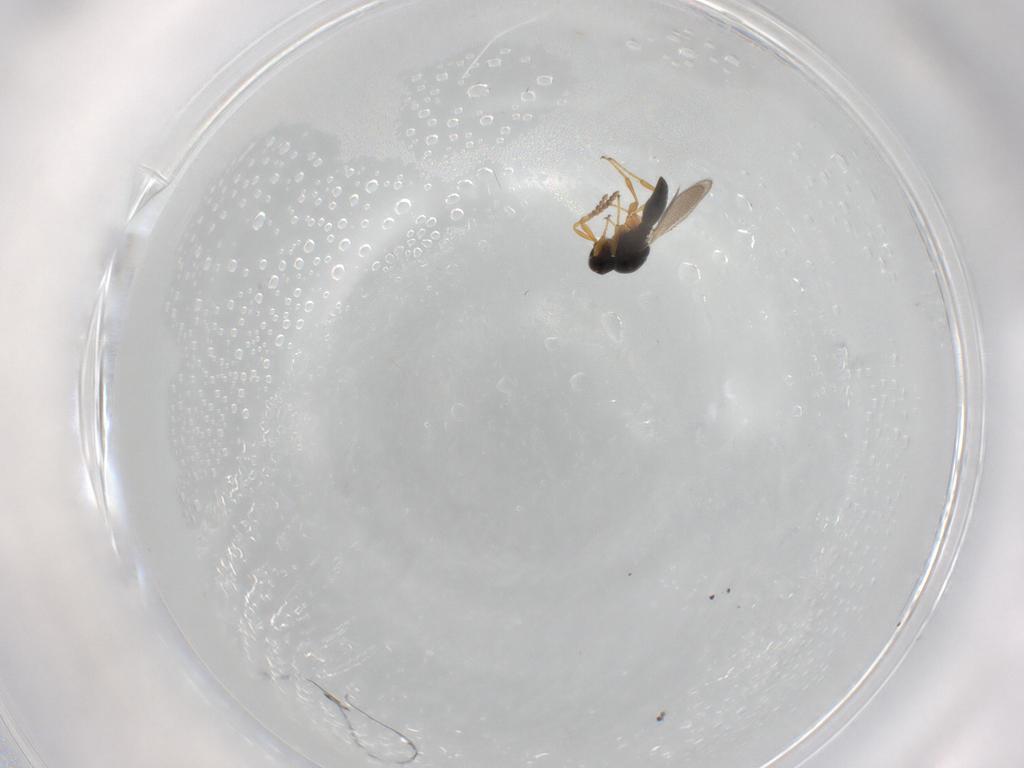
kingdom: Animalia
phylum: Arthropoda
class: Insecta
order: Hymenoptera
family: Platygastridae
